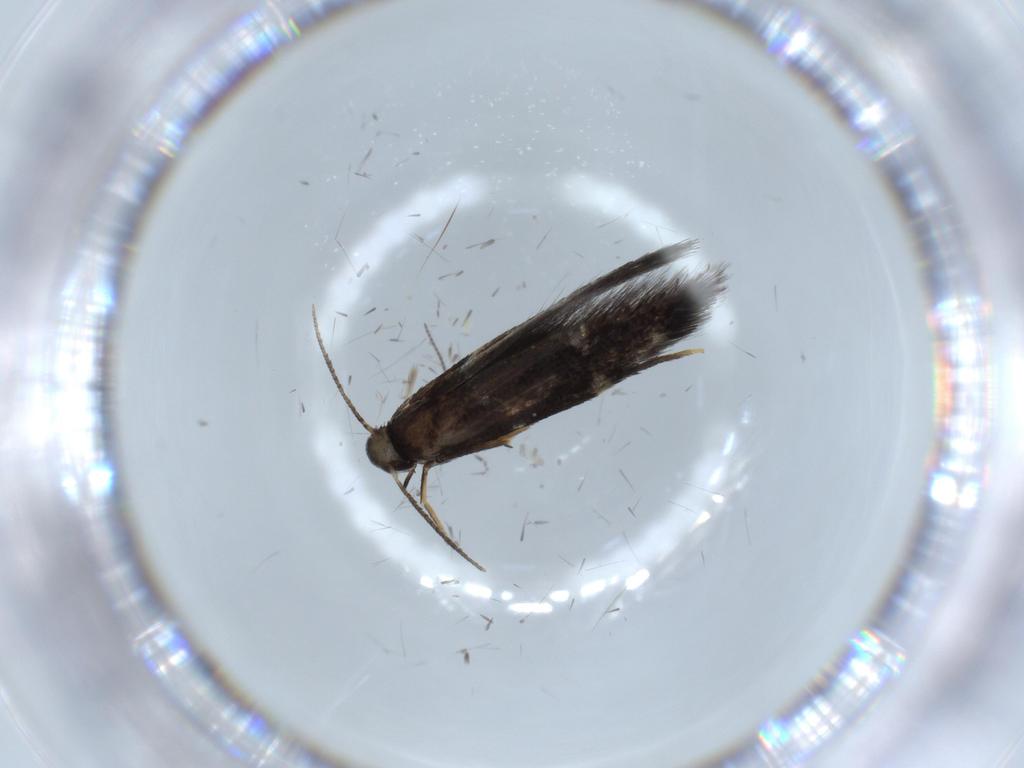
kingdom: Animalia
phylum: Arthropoda
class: Insecta
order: Lepidoptera
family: Heliozelidae
